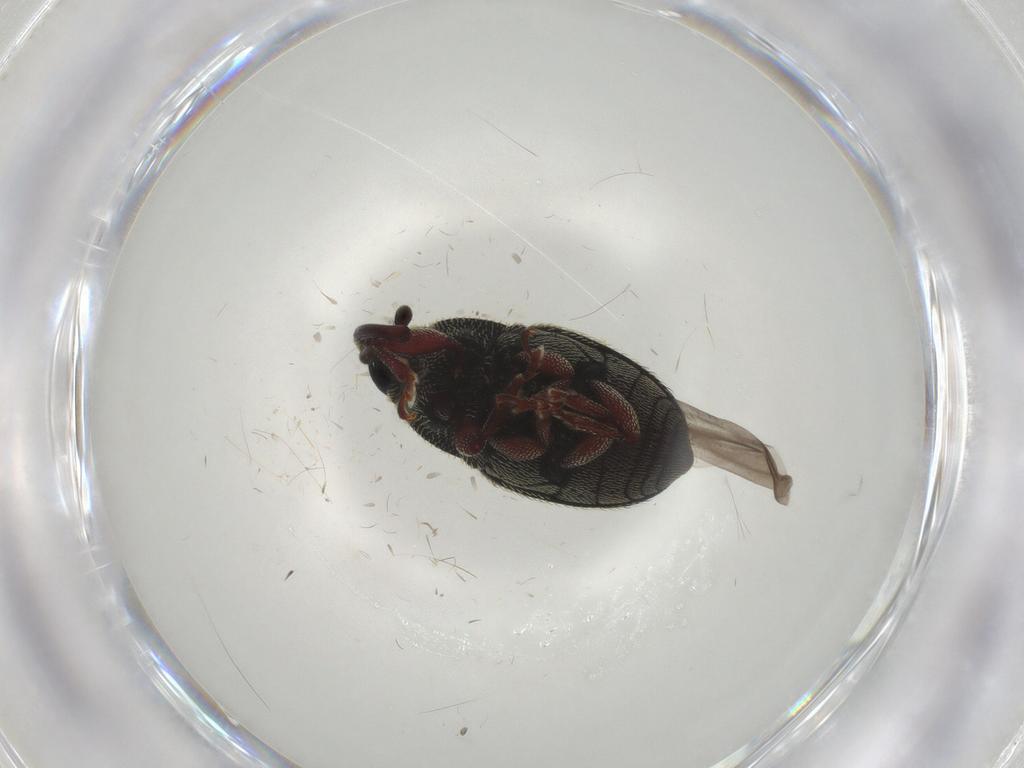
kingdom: Animalia
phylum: Arthropoda
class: Insecta
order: Coleoptera
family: Curculionidae
